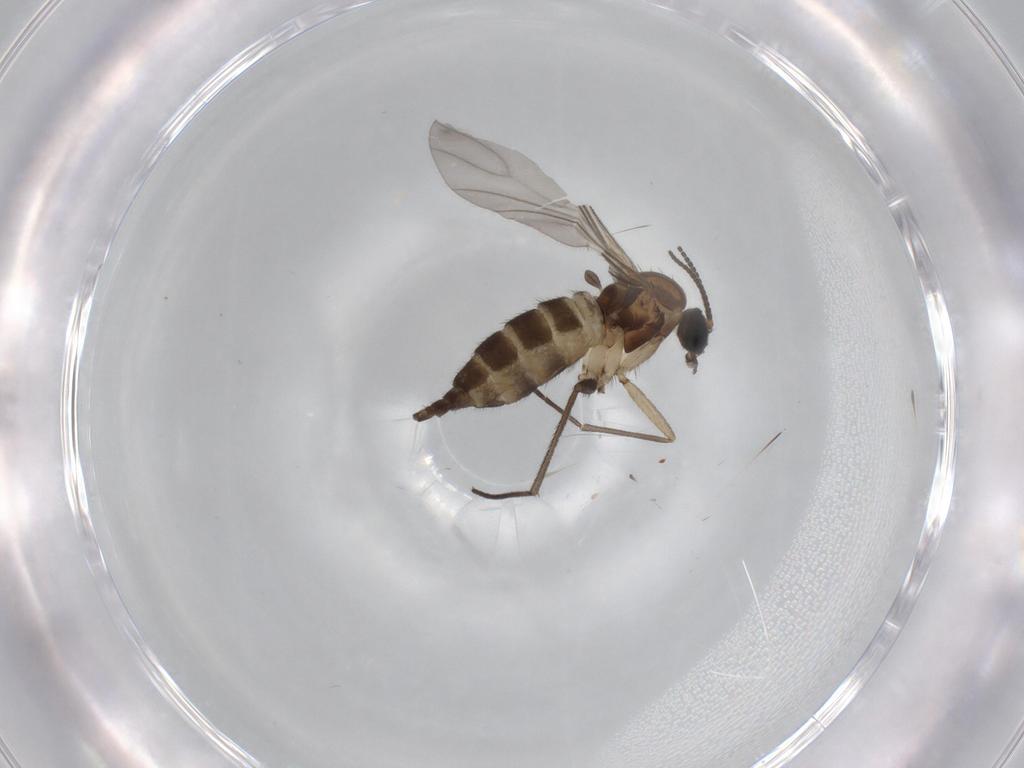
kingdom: Animalia
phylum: Arthropoda
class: Insecta
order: Diptera
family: Sciaridae
